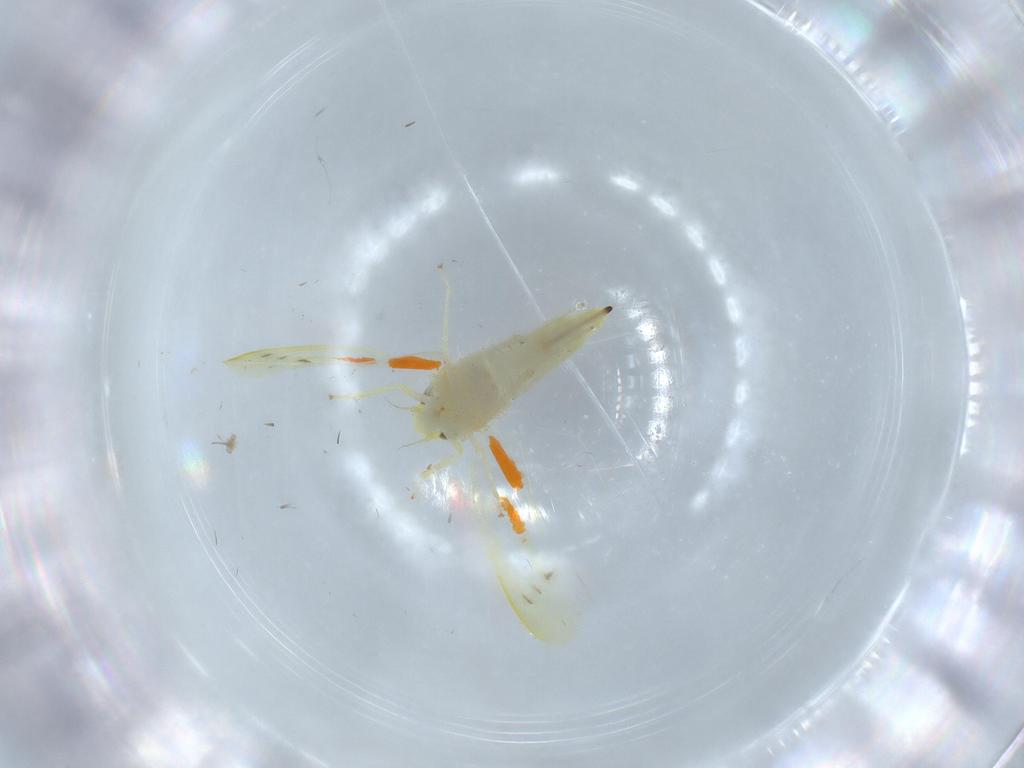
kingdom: Animalia
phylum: Arthropoda
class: Insecta
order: Hemiptera
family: Cicadellidae
